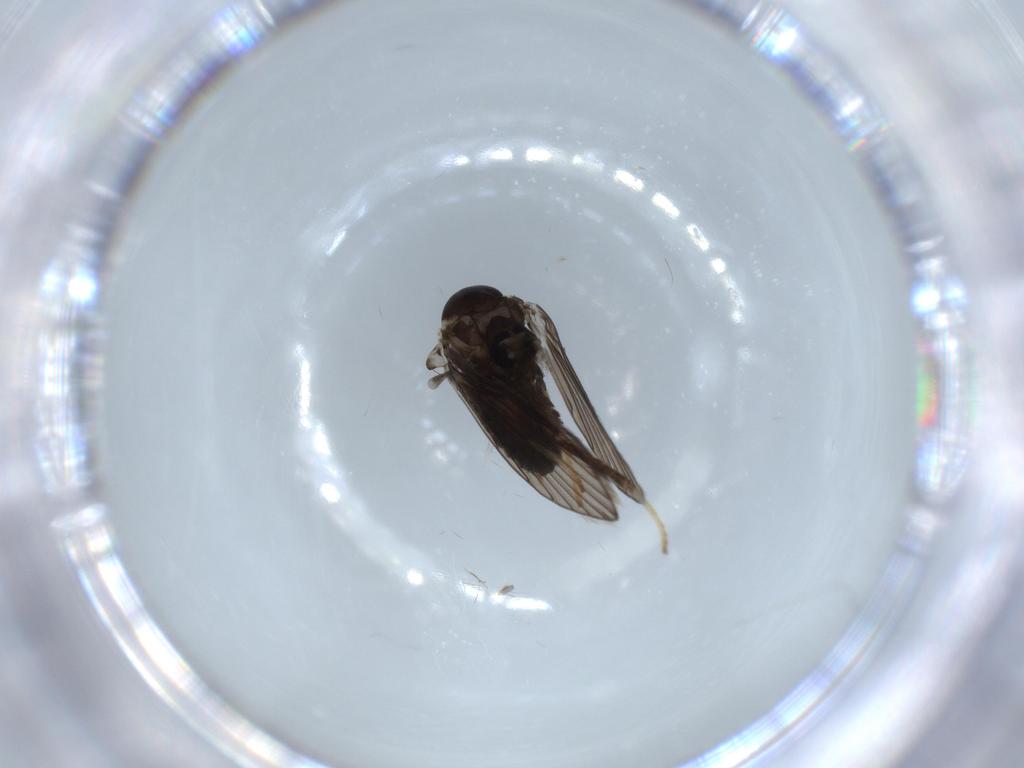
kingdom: Animalia
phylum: Arthropoda
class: Insecta
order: Diptera
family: Psychodidae
